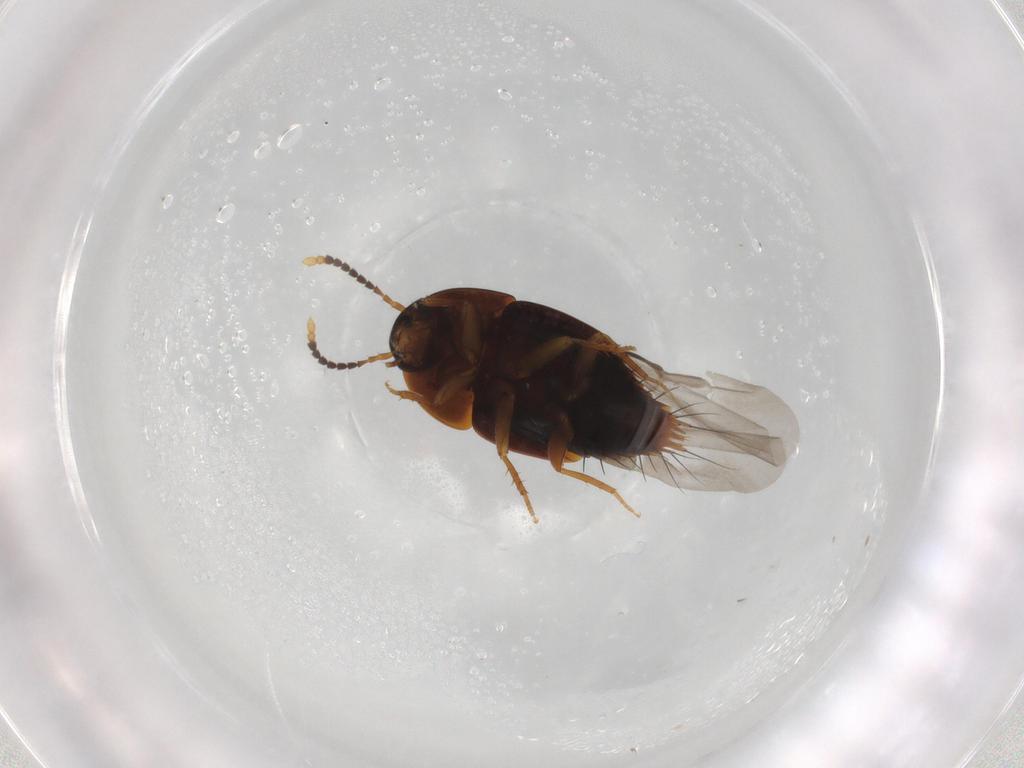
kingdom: Animalia
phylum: Arthropoda
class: Insecta
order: Coleoptera
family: Staphylinidae
